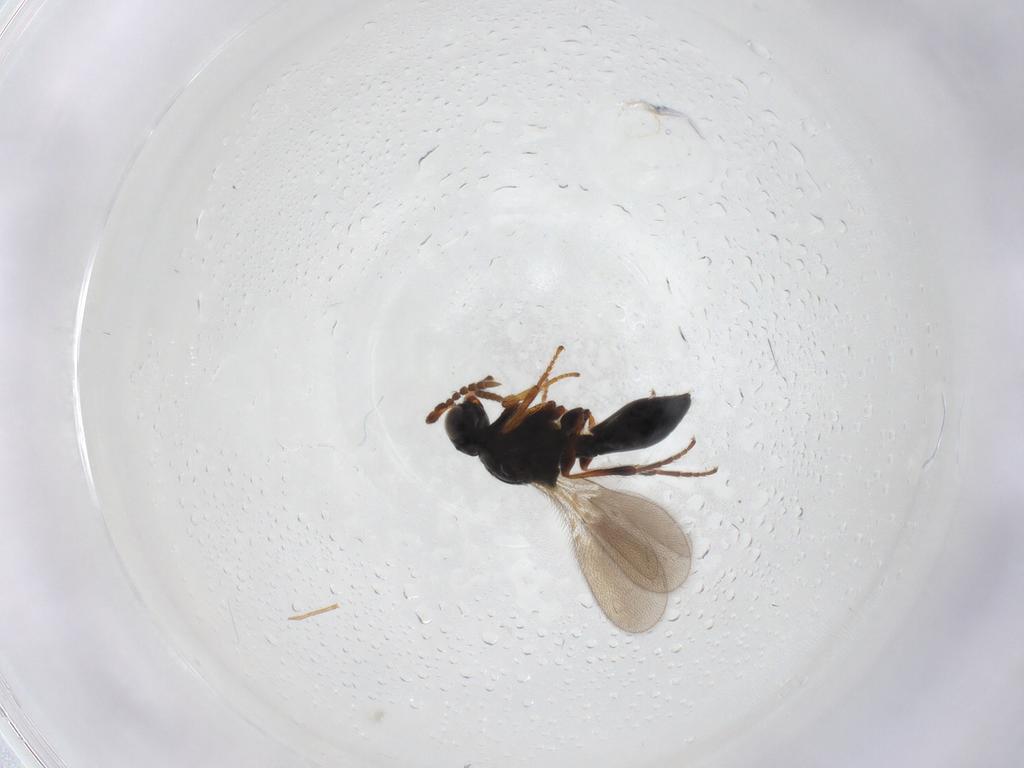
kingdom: Animalia
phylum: Arthropoda
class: Insecta
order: Hymenoptera
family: Platygastridae
